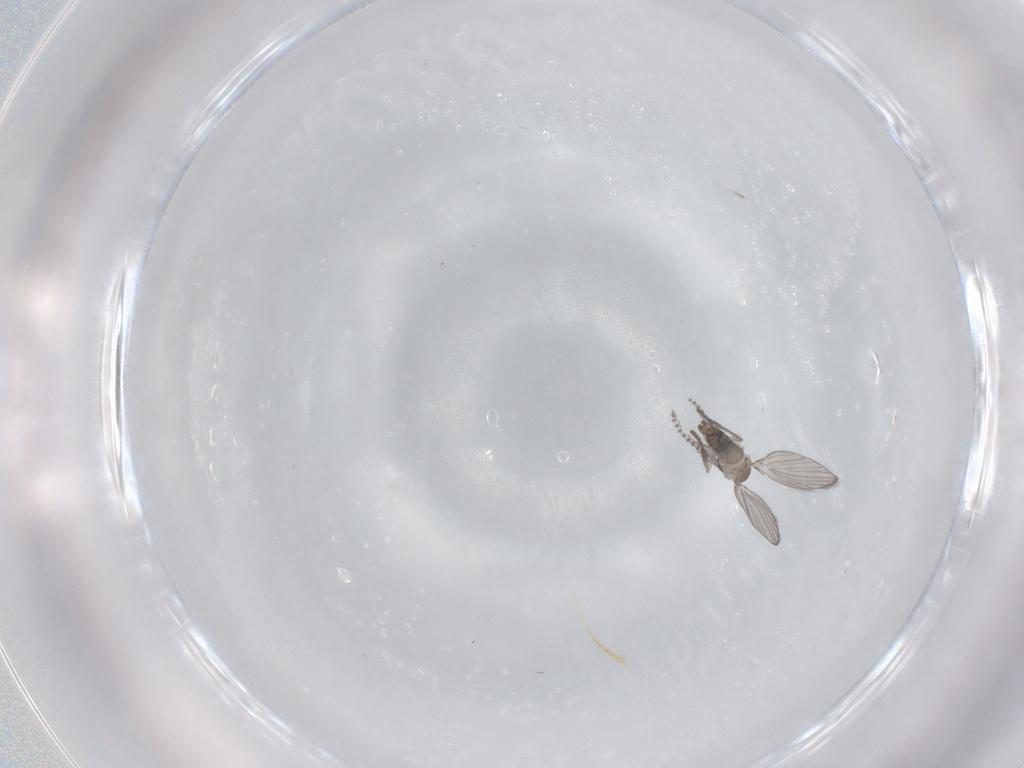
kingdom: Animalia
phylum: Arthropoda
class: Insecta
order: Diptera
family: Psychodidae
